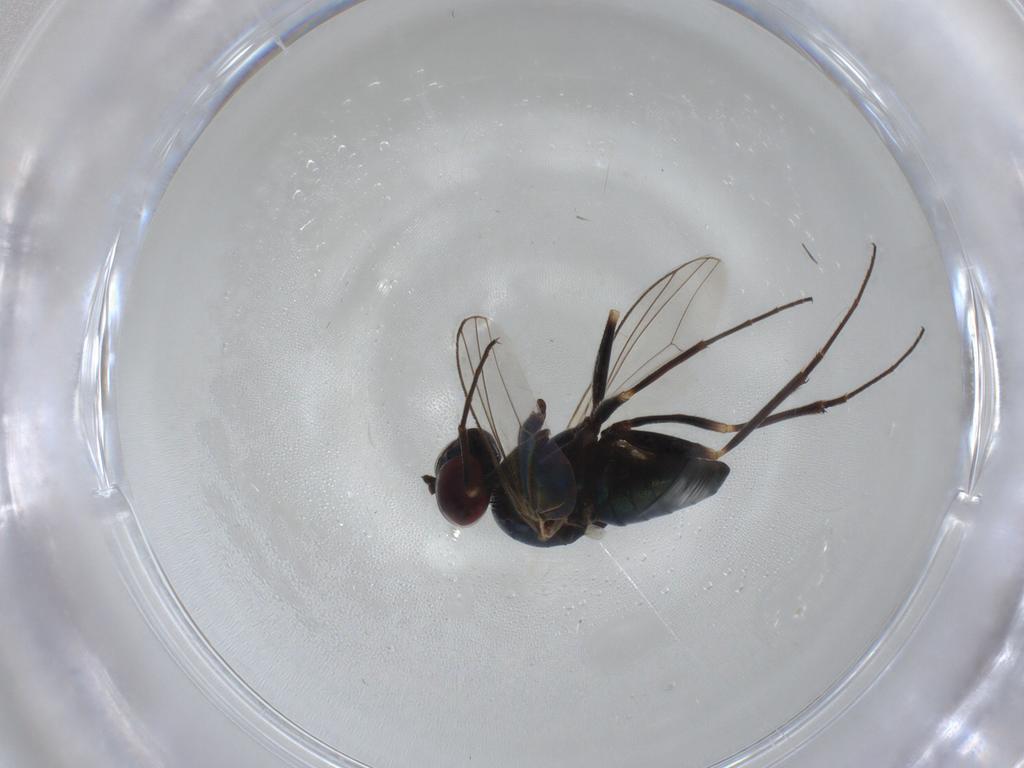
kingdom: Animalia
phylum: Arthropoda
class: Insecta
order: Diptera
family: Dolichopodidae
